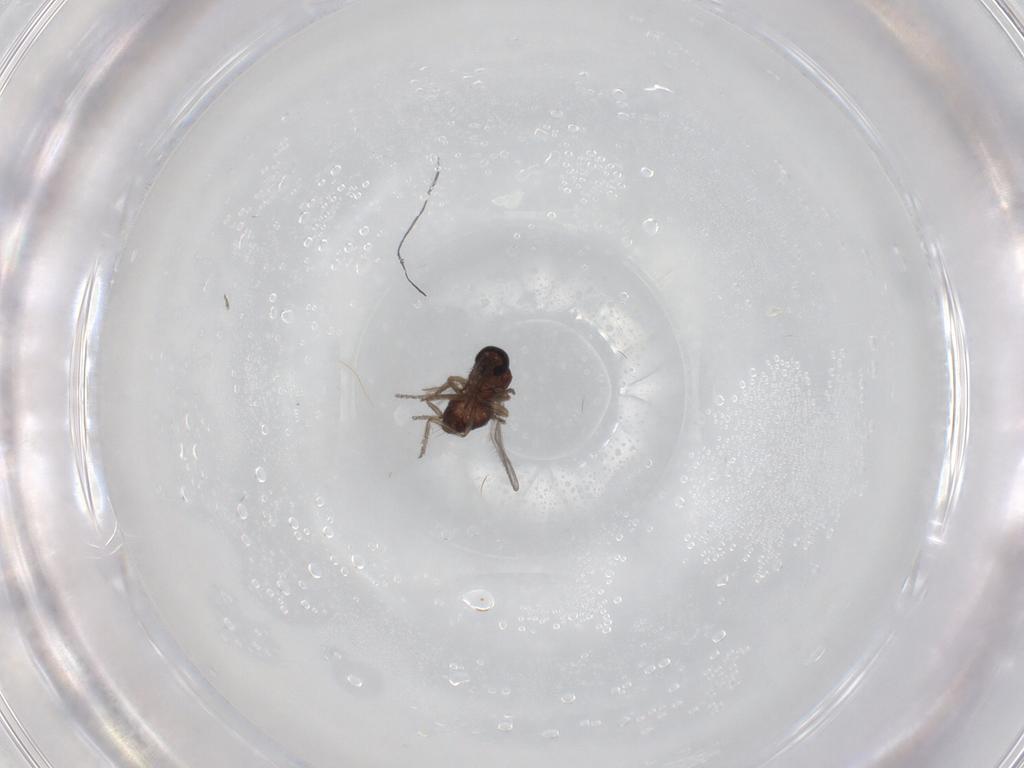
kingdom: Animalia
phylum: Arthropoda
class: Insecta
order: Diptera
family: Ceratopogonidae
